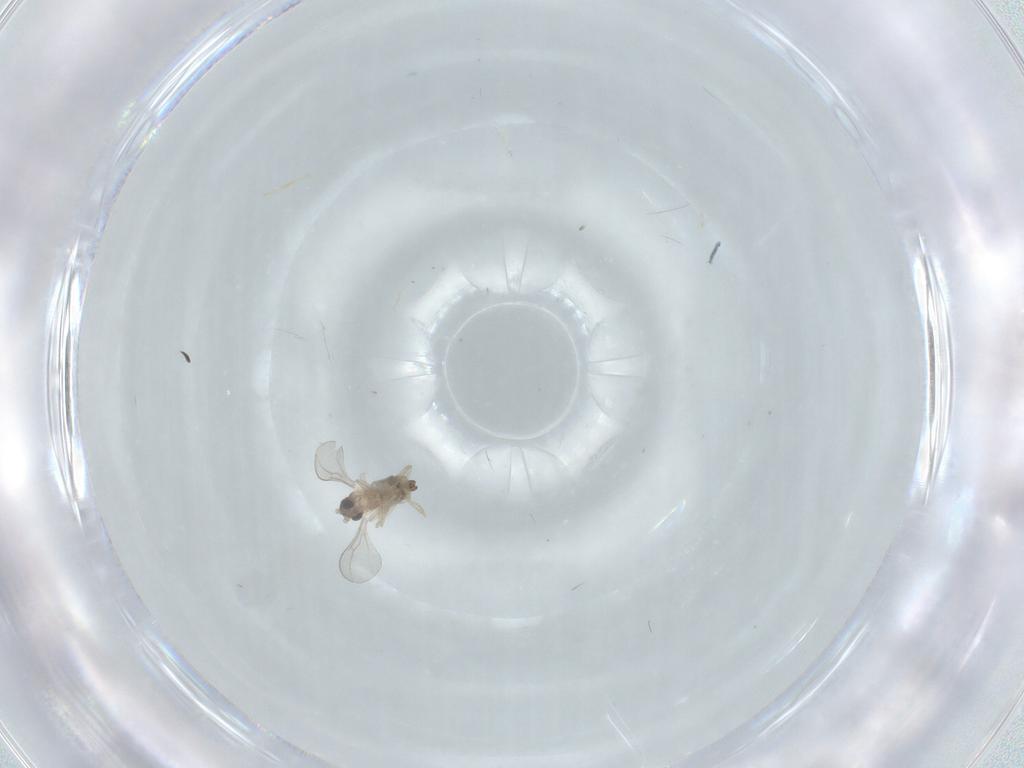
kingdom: Animalia
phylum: Arthropoda
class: Insecta
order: Diptera
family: Cecidomyiidae
